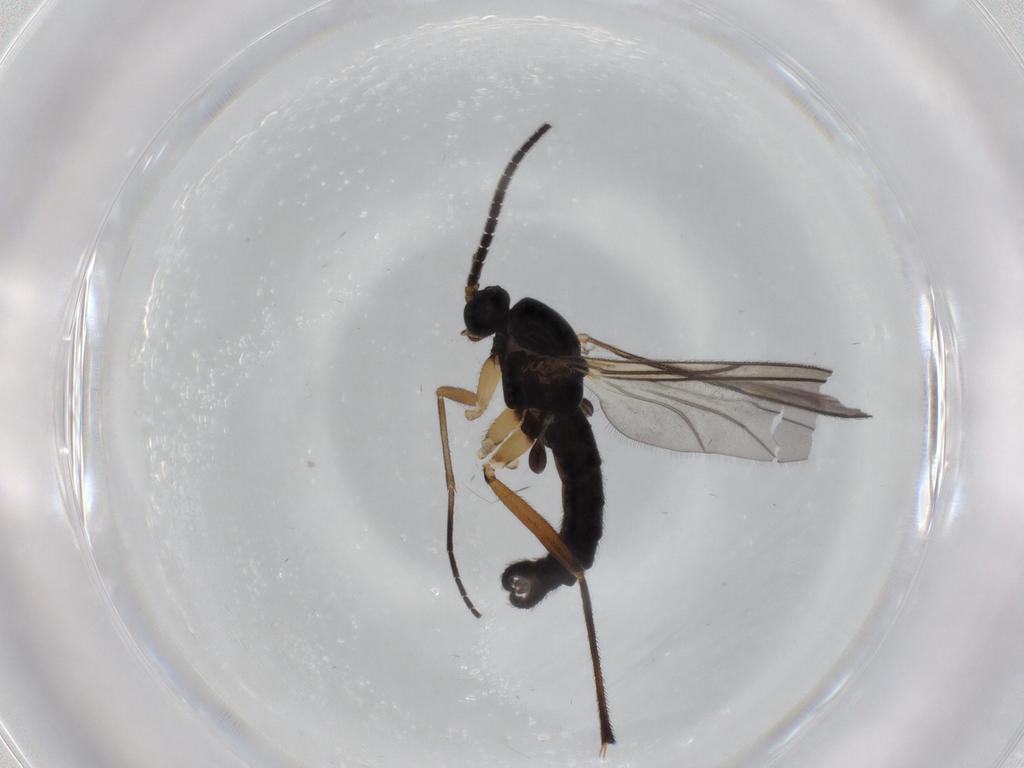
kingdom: Animalia
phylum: Arthropoda
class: Insecta
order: Diptera
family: Sciaridae
